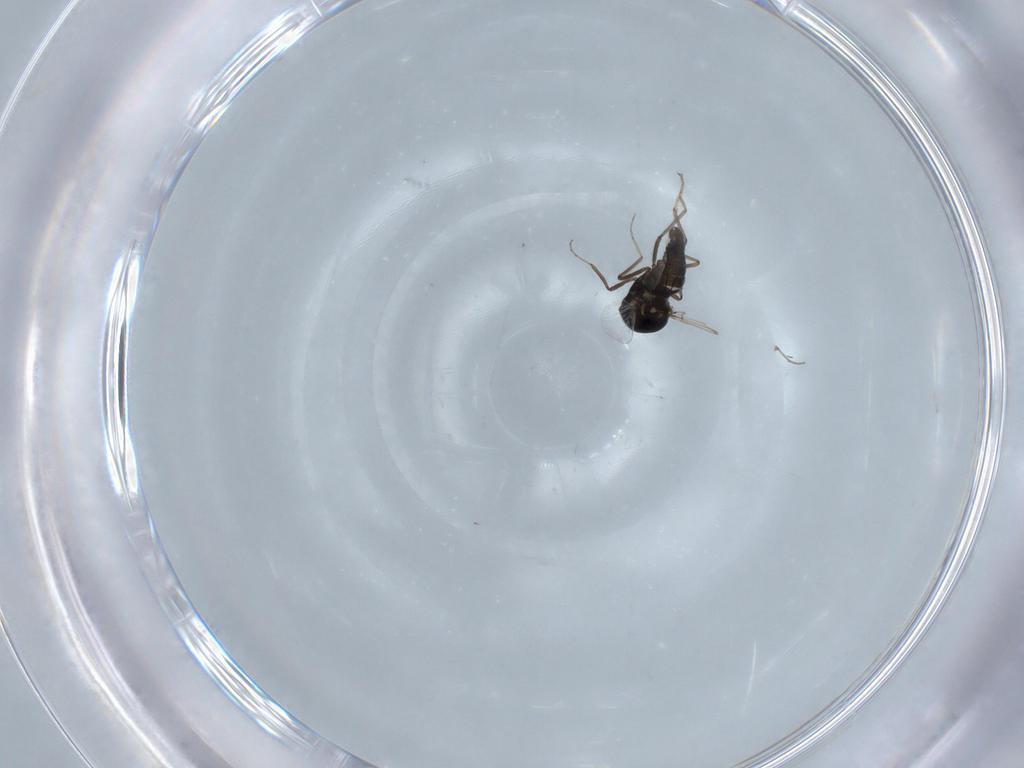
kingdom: Animalia
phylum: Arthropoda
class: Insecta
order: Diptera
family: Ceratopogonidae
